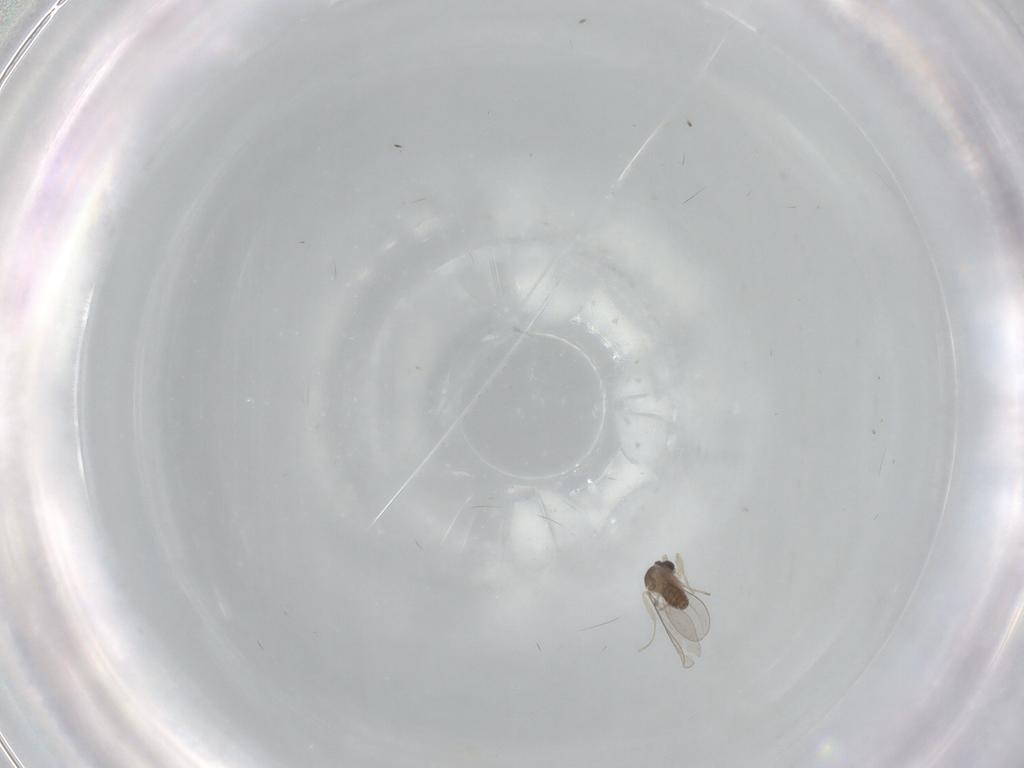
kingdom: Animalia
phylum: Arthropoda
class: Insecta
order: Diptera
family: Cecidomyiidae
